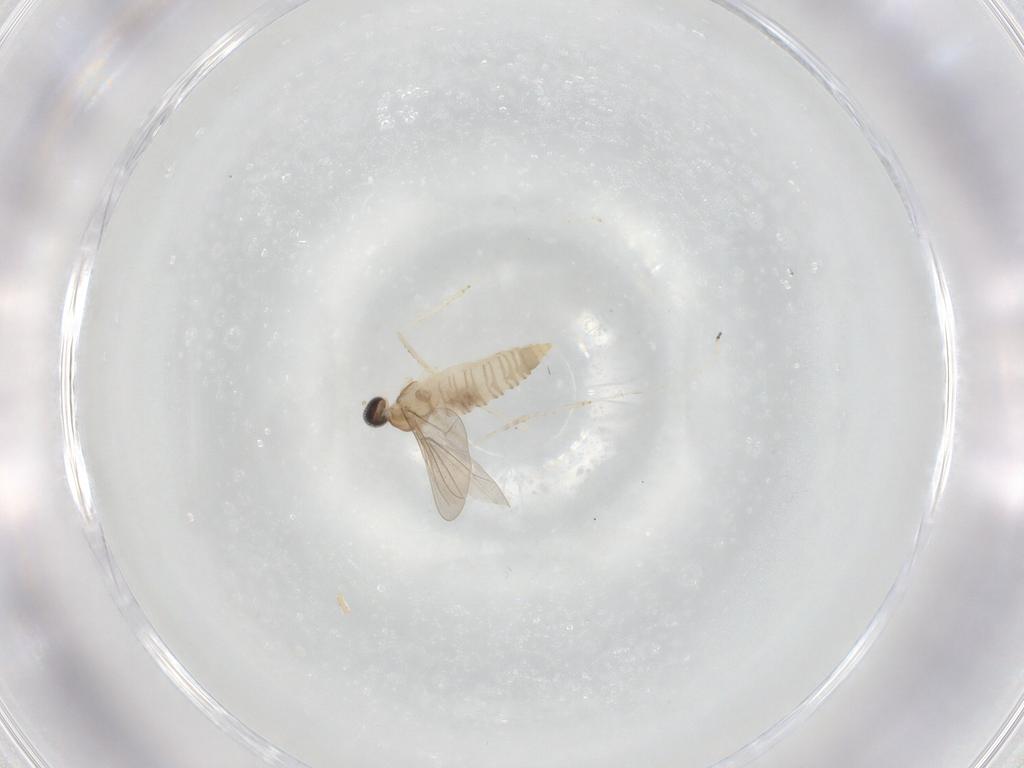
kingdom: Animalia
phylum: Arthropoda
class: Insecta
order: Diptera
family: Cecidomyiidae
